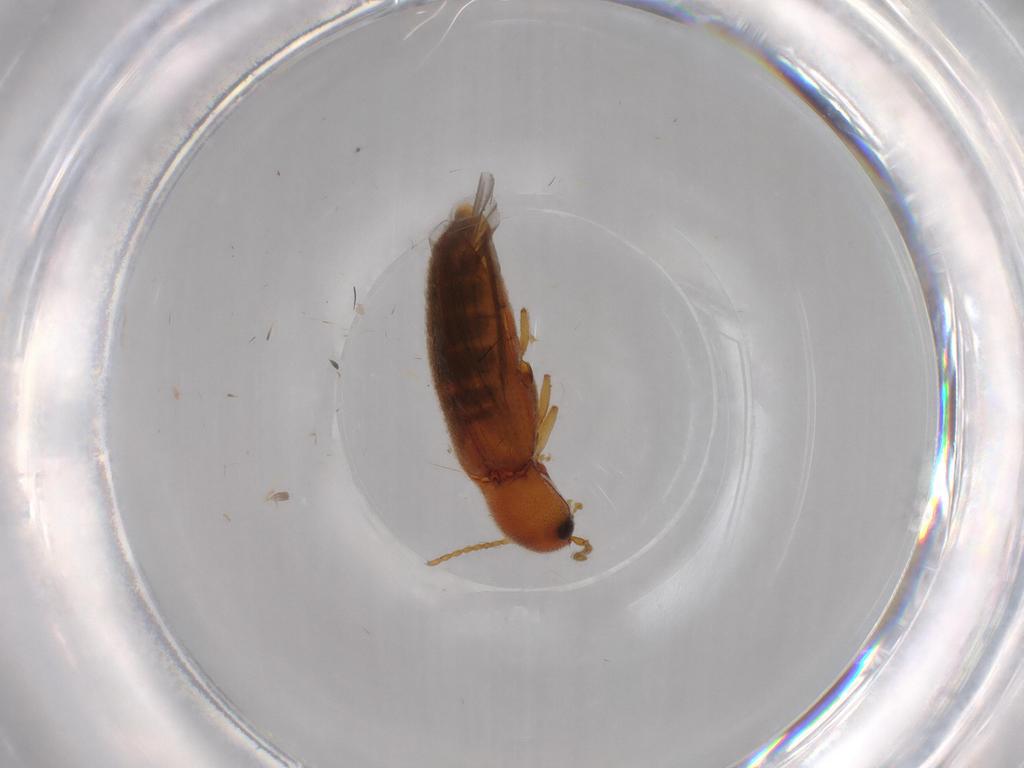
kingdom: Animalia
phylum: Arthropoda
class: Insecta
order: Coleoptera
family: Elateridae
